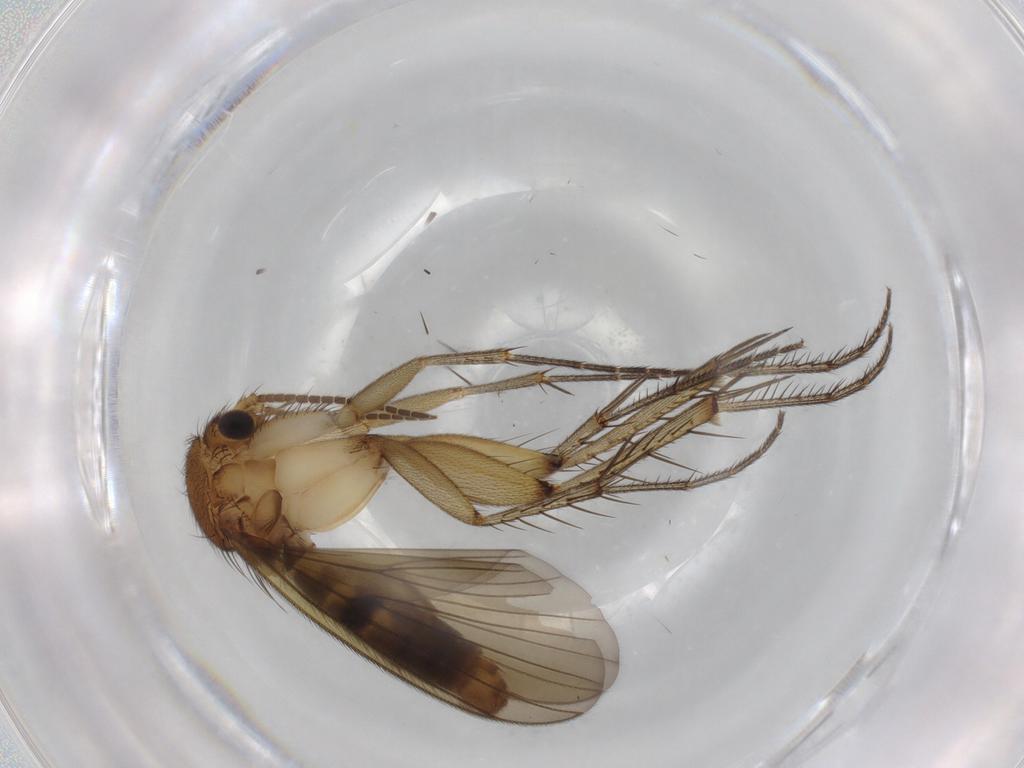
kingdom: Animalia
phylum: Arthropoda
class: Insecta
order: Diptera
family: Mycetophilidae
